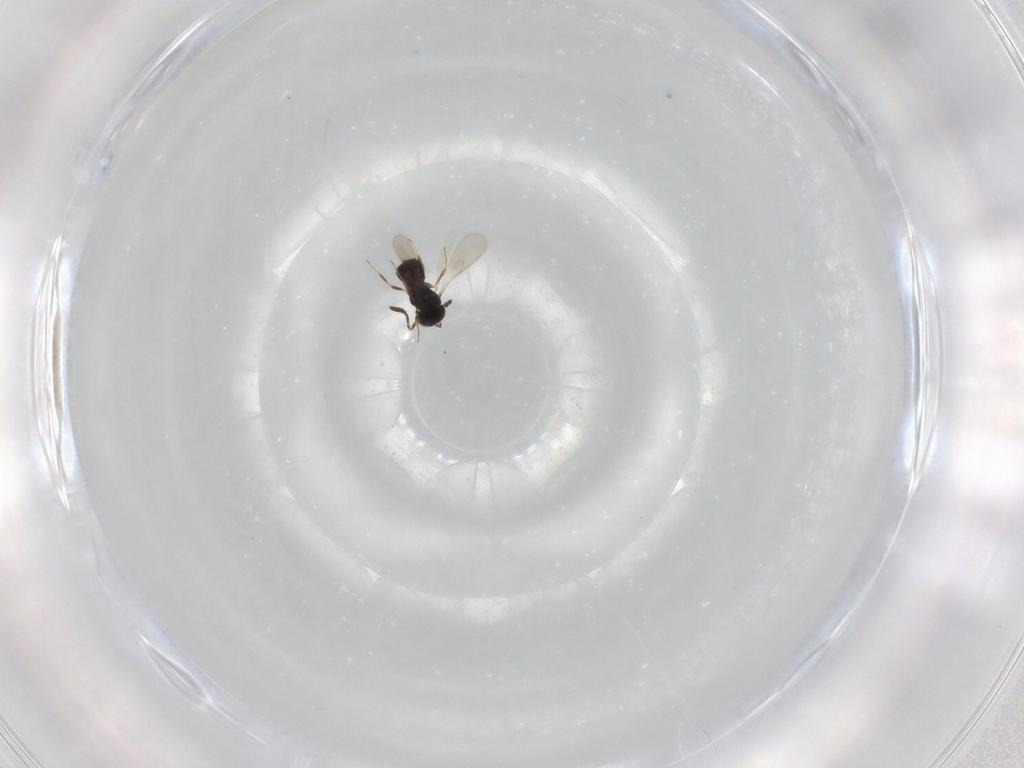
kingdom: Animalia
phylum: Arthropoda
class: Insecta
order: Hymenoptera
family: Scelionidae
